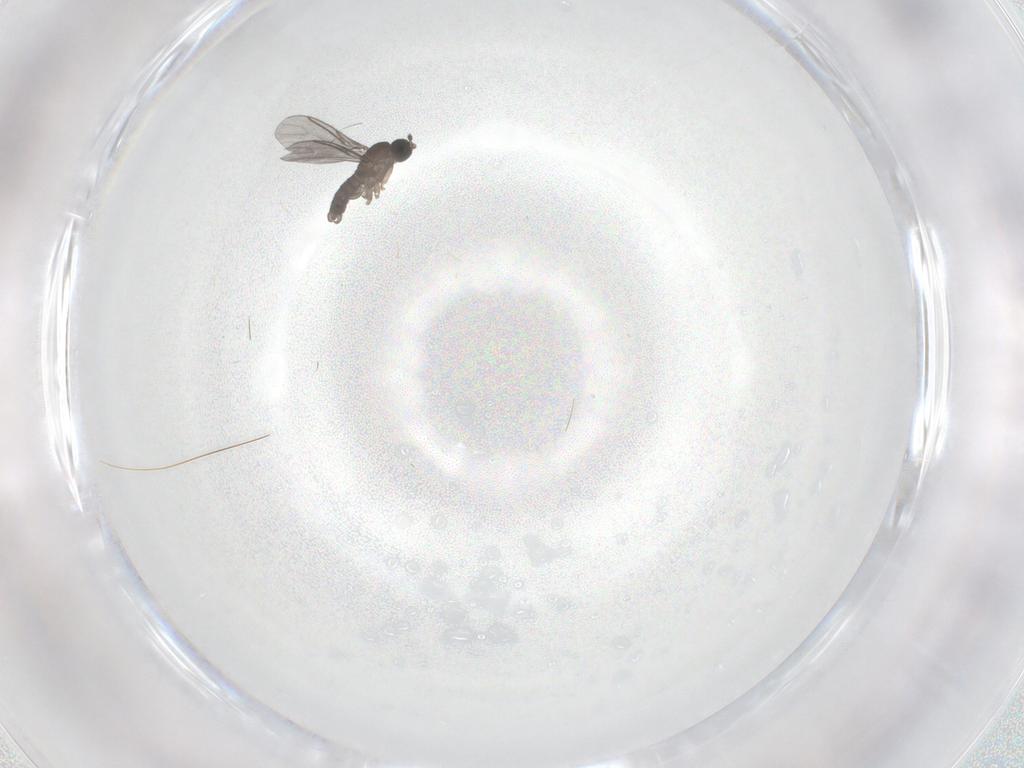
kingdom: Animalia
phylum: Arthropoda
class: Insecta
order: Diptera
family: Sciaridae
